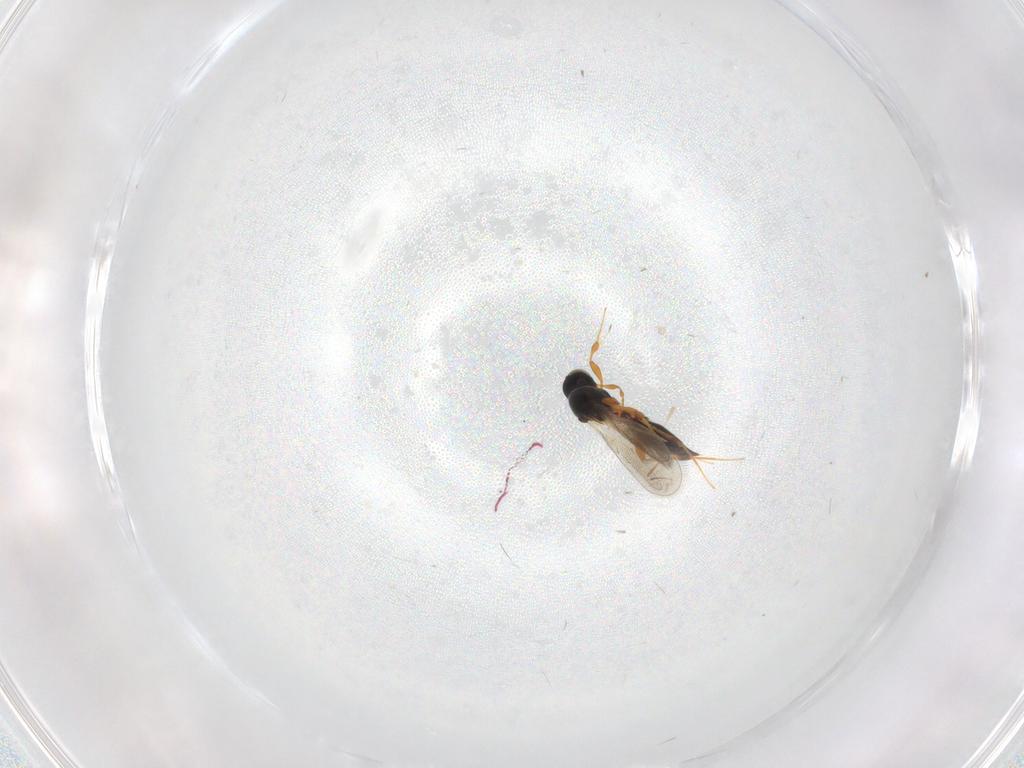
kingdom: Animalia
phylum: Arthropoda
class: Insecta
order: Hymenoptera
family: Platygastridae
